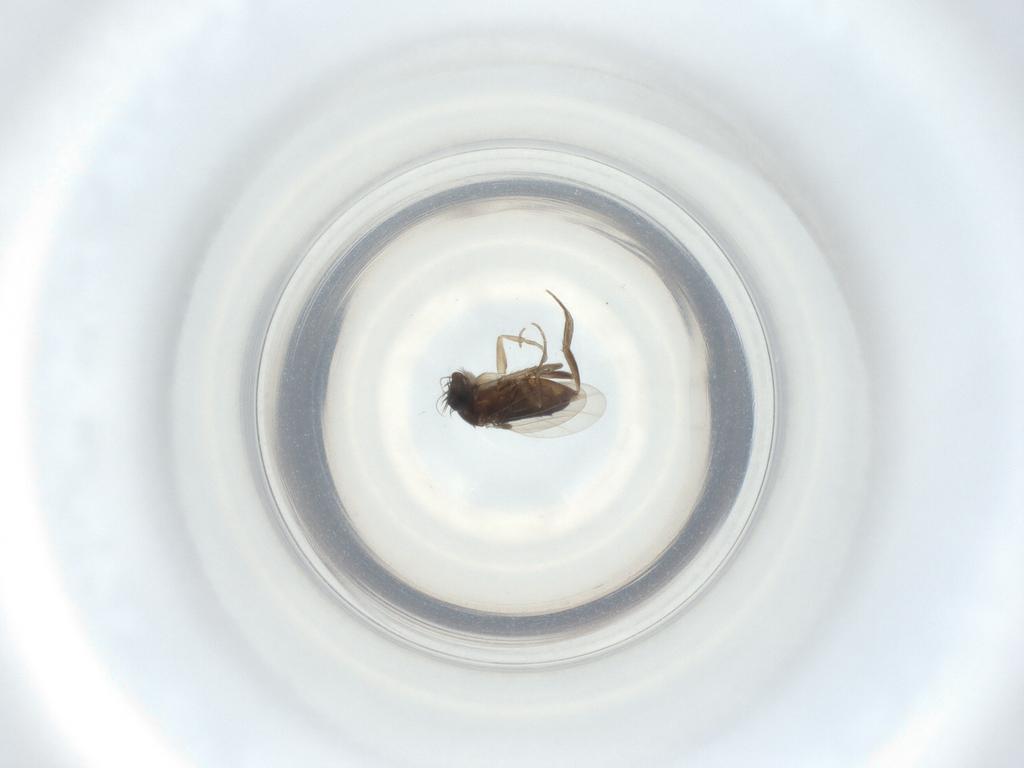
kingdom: Animalia
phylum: Arthropoda
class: Insecta
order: Diptera
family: Phoridae
